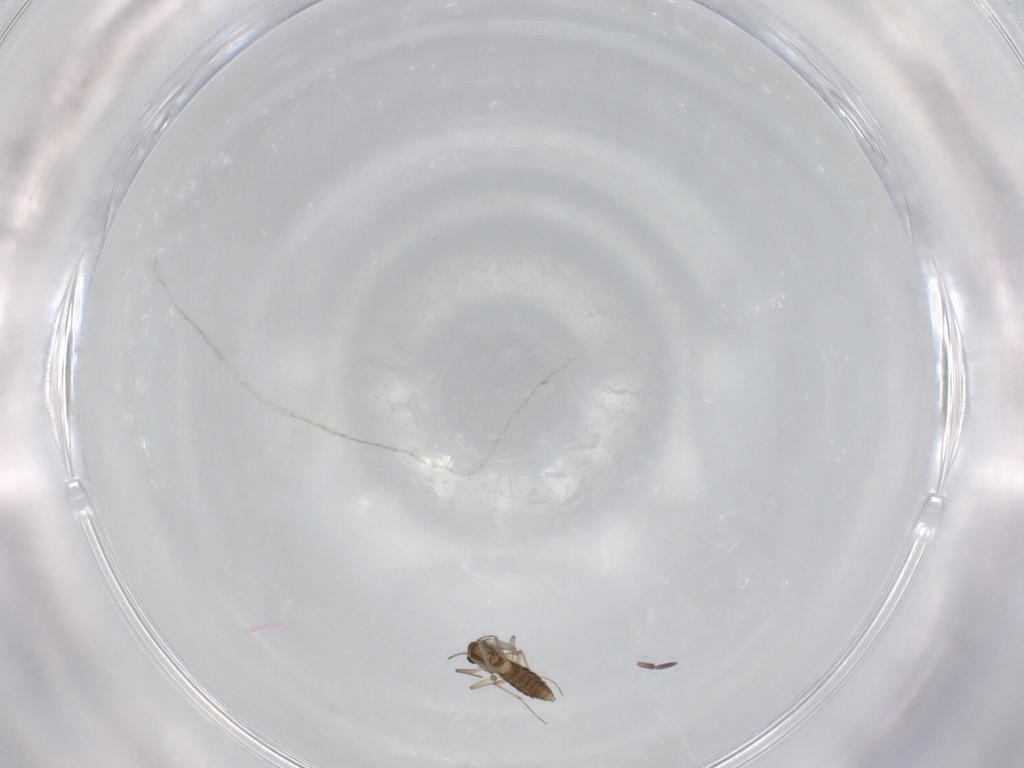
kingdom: Animalia
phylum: Arthropoda
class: Insecta
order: Diptera
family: Chironomidae
